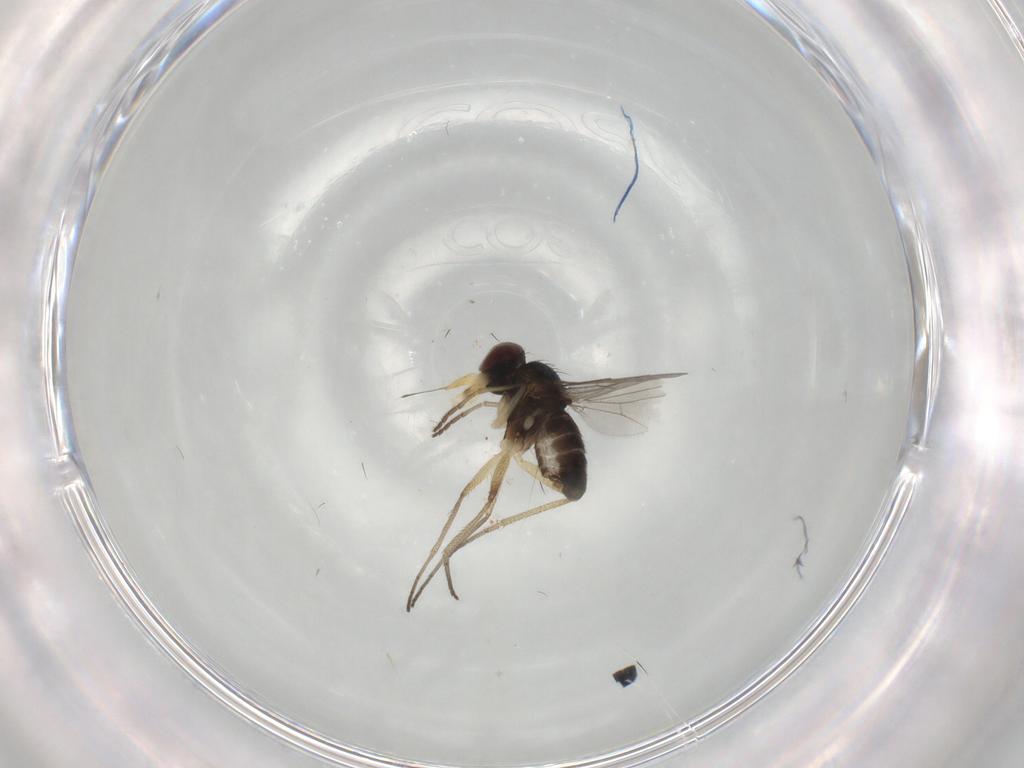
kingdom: Animalia
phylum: Arthropoda
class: Insecta
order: Diptera
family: Dolichopodidae
